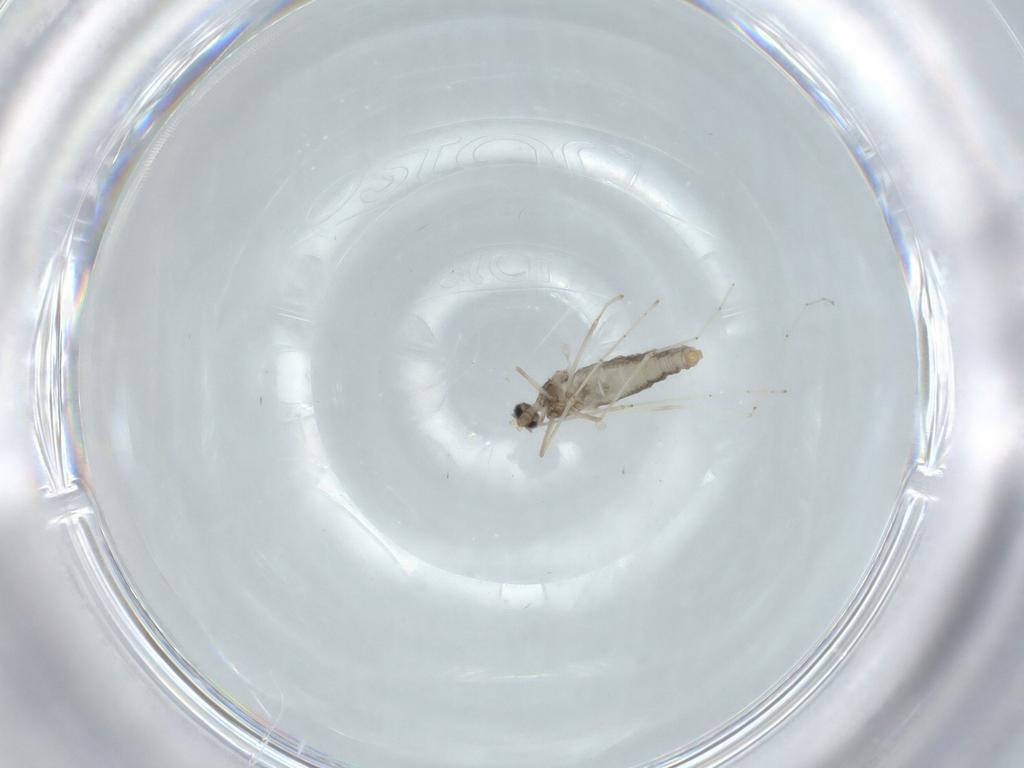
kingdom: Animalia
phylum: Arthropoda
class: Insecta
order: Diptera
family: Cecidomyiidae
